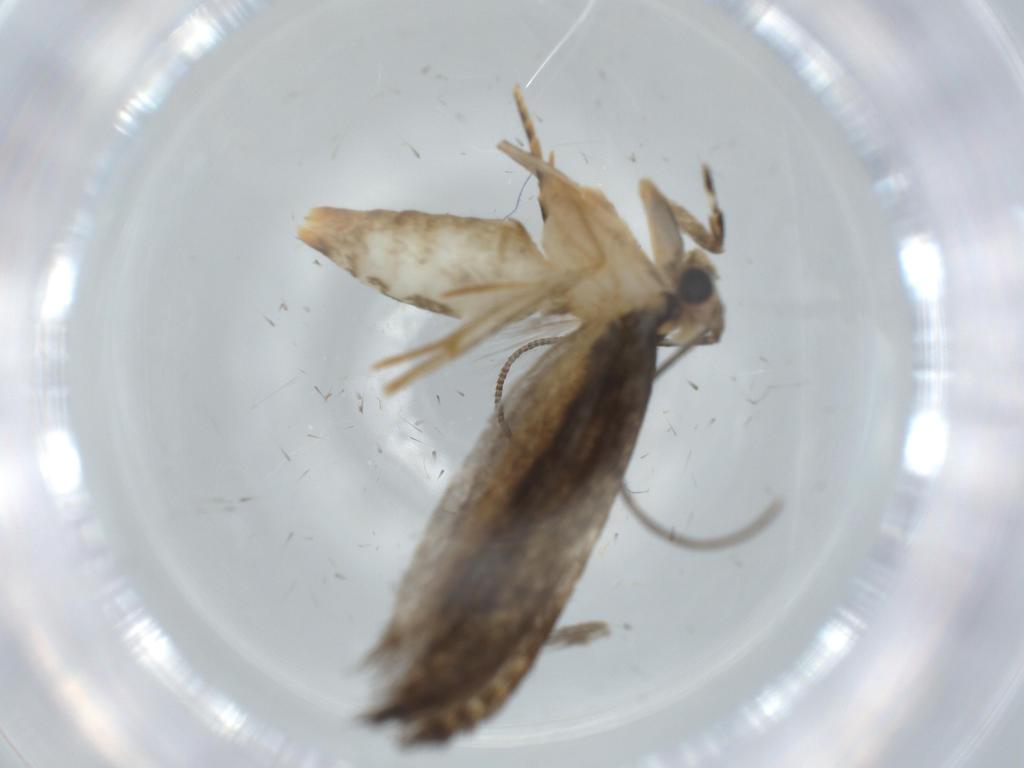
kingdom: Animalia
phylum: Arthropoda
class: Insecta
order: Lepidoptera
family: Tineidae
